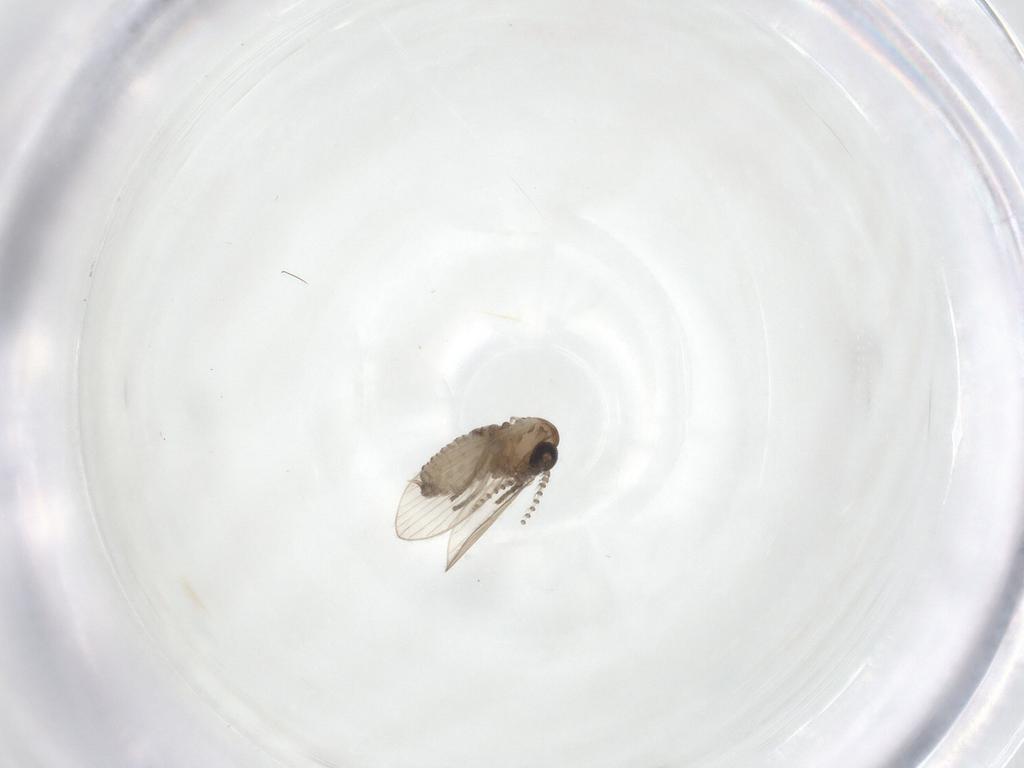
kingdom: Animalia
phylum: Arthropoda
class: Insecta
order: Diptera
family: Psychodidae
